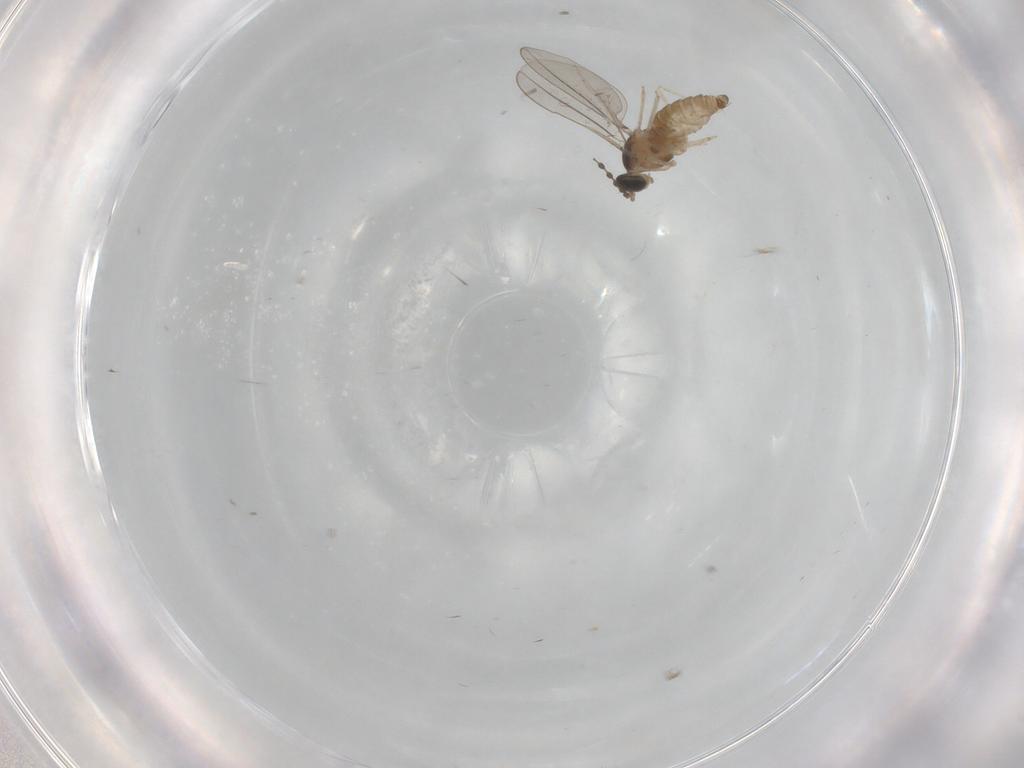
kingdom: Animalia
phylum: Arthropoda
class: Insecta
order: Diptera
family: Cecidomyiidae
